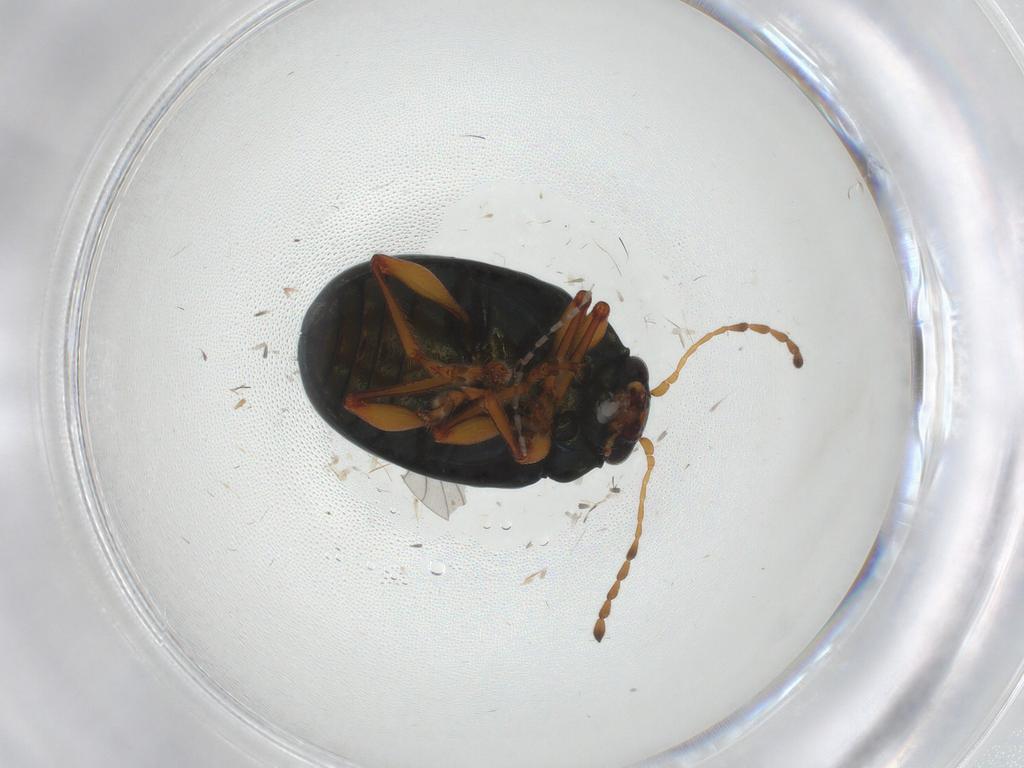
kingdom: Animalia
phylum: Arthropoda
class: Insecta
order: Coleoptera
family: Chrysomelidae
